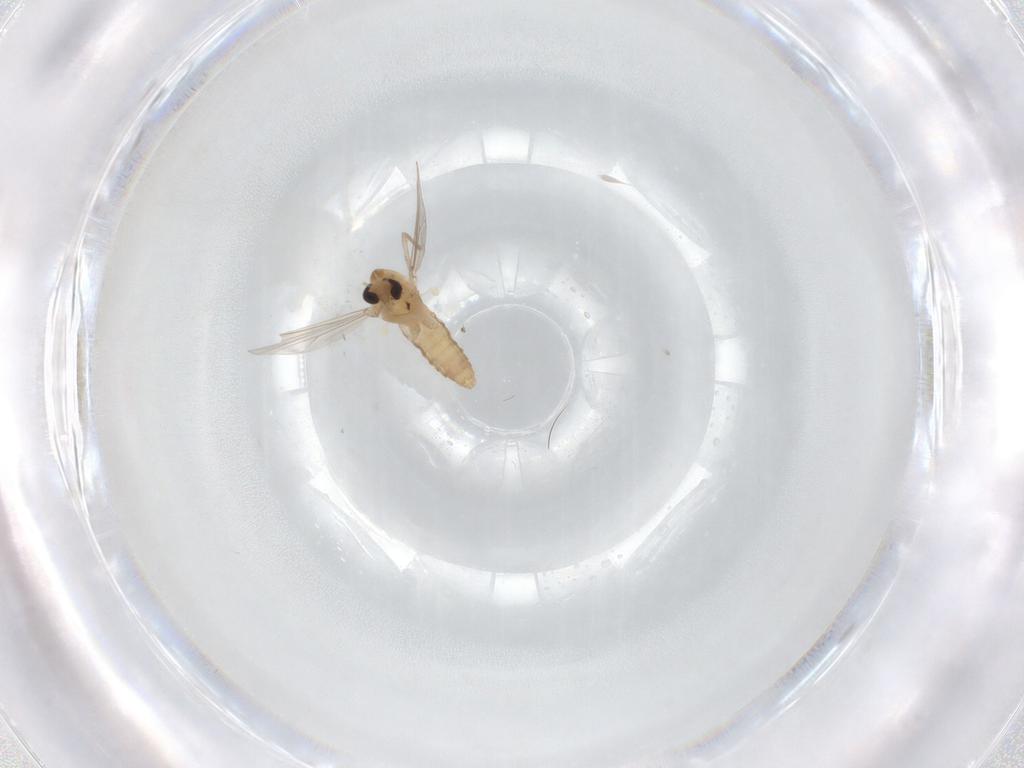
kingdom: Animalia
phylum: Arthropoda
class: Insecta
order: Diptera
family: Chironomidae
